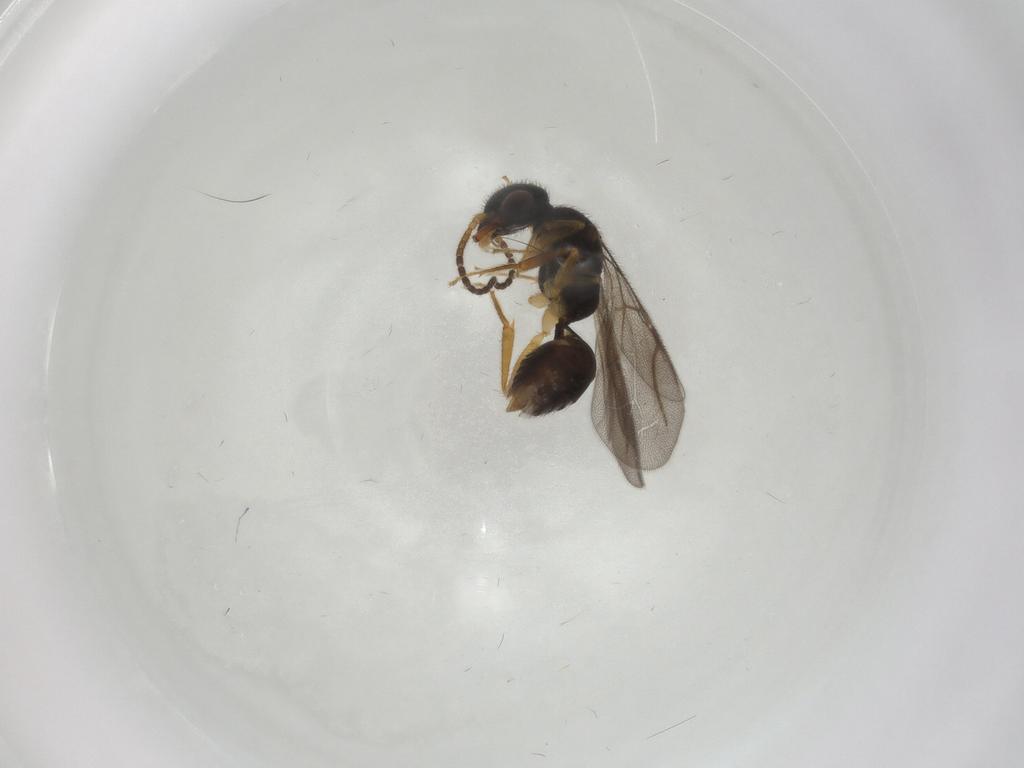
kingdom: Animalia
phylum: Arthropoda
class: Insecta
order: Hymenoptera
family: Bethylidae
